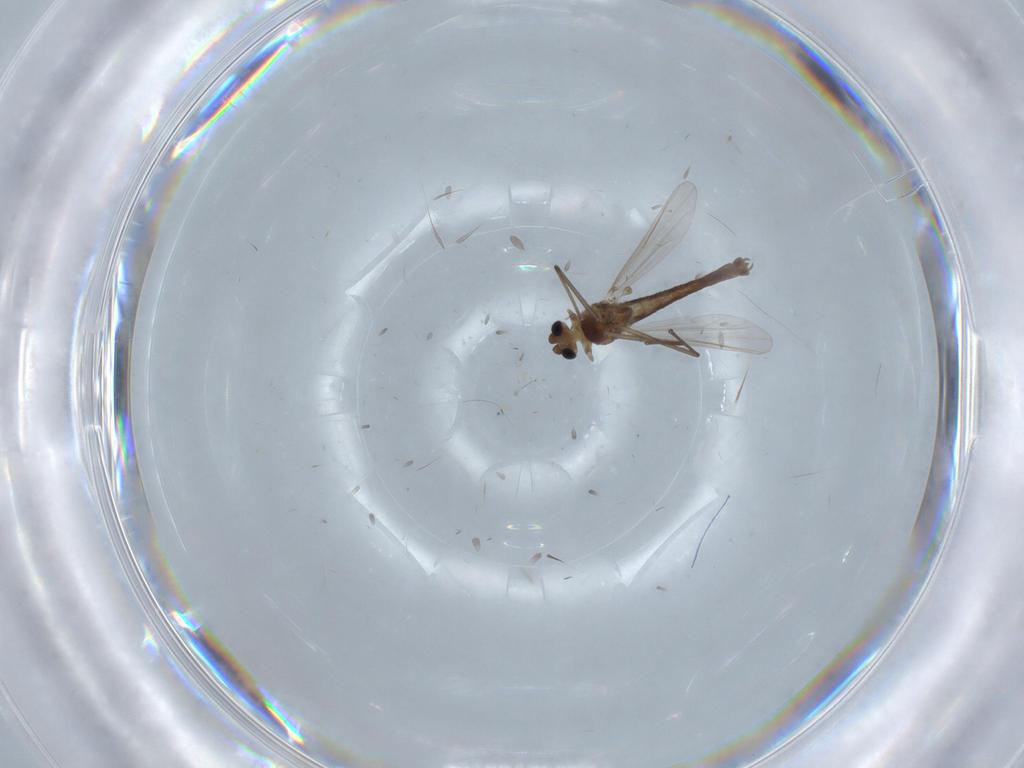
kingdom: Animalia
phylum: Arthropoda
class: Insecta
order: Diptera
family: Chironomidae
